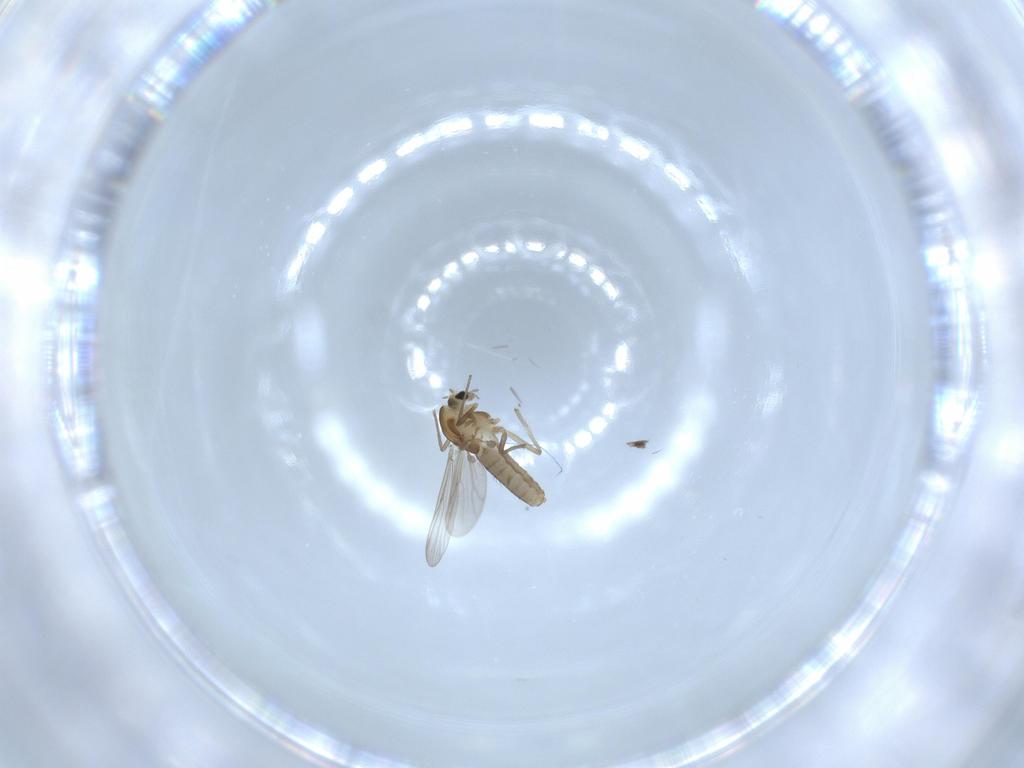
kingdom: Animalia
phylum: Arthropoda
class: Insecta
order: Diptera
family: Chironomidae
